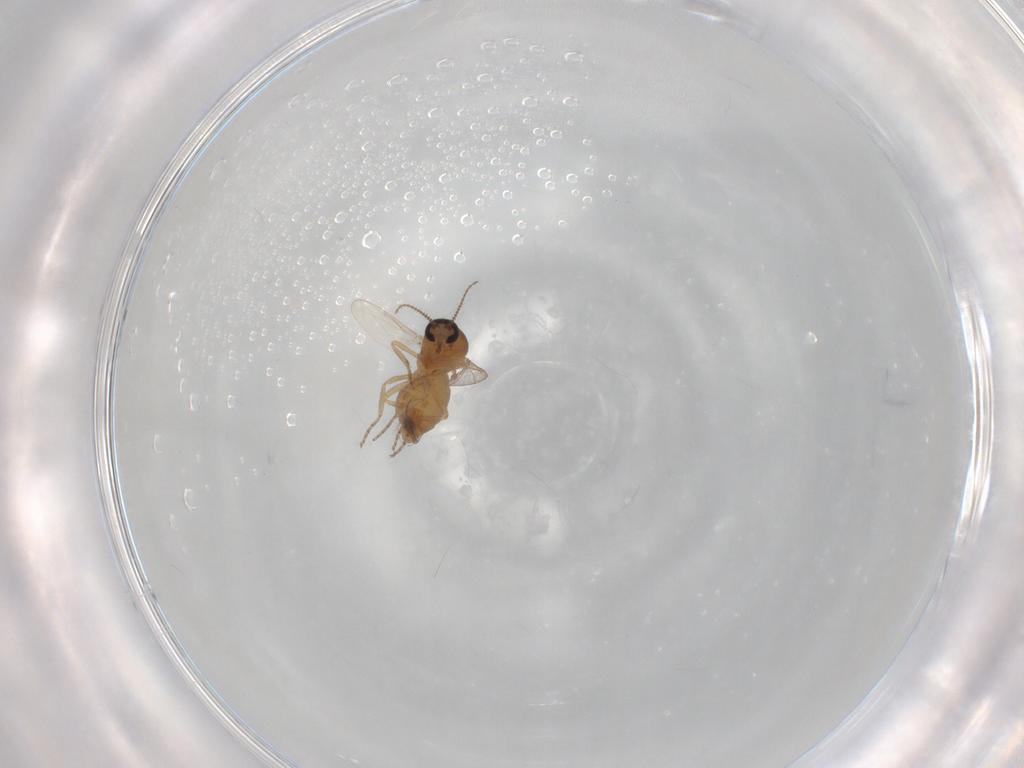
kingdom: Animalia
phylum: Arthropoda
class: Insecta
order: Diptera
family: Ceratopogonidae
